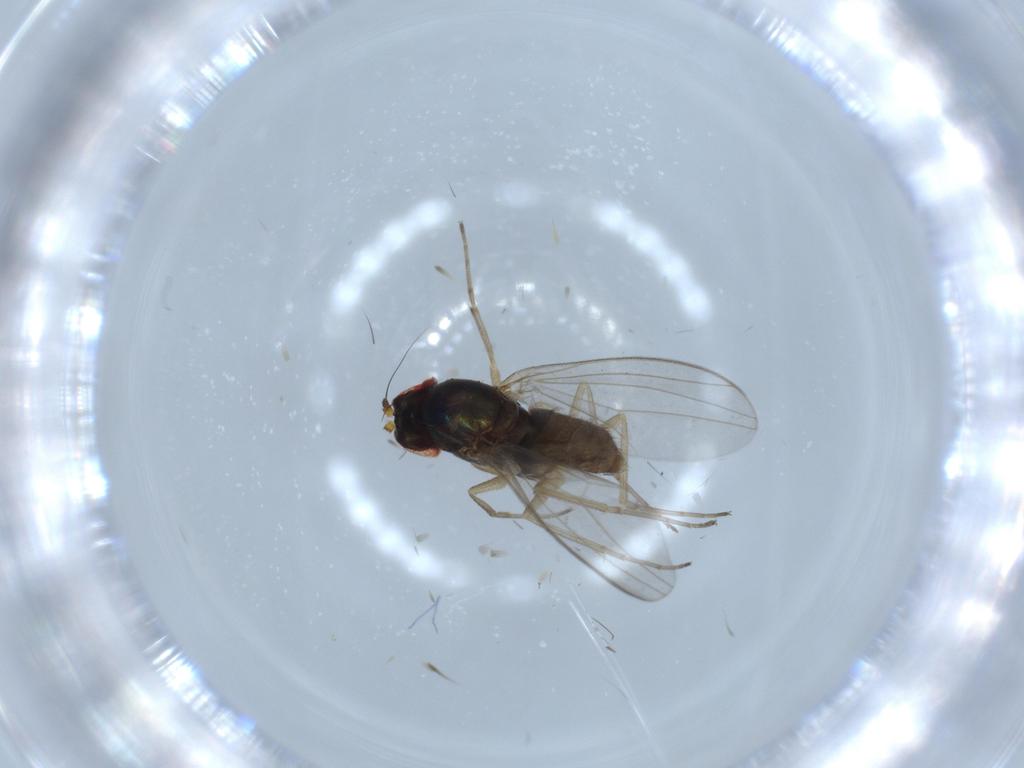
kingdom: Animalia
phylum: Arthropoda
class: Insecta
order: Diptera
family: Dolichopodidae
